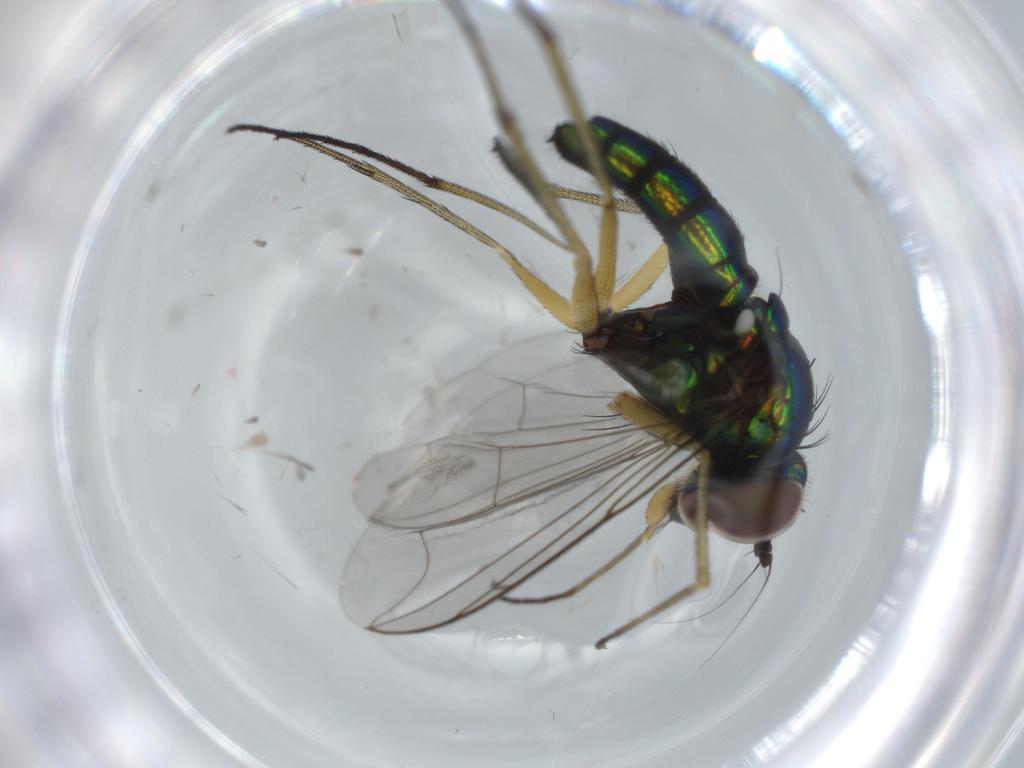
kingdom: Animalia
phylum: Arthropoda
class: Insecta
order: Diptera
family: Dolichopodidae
